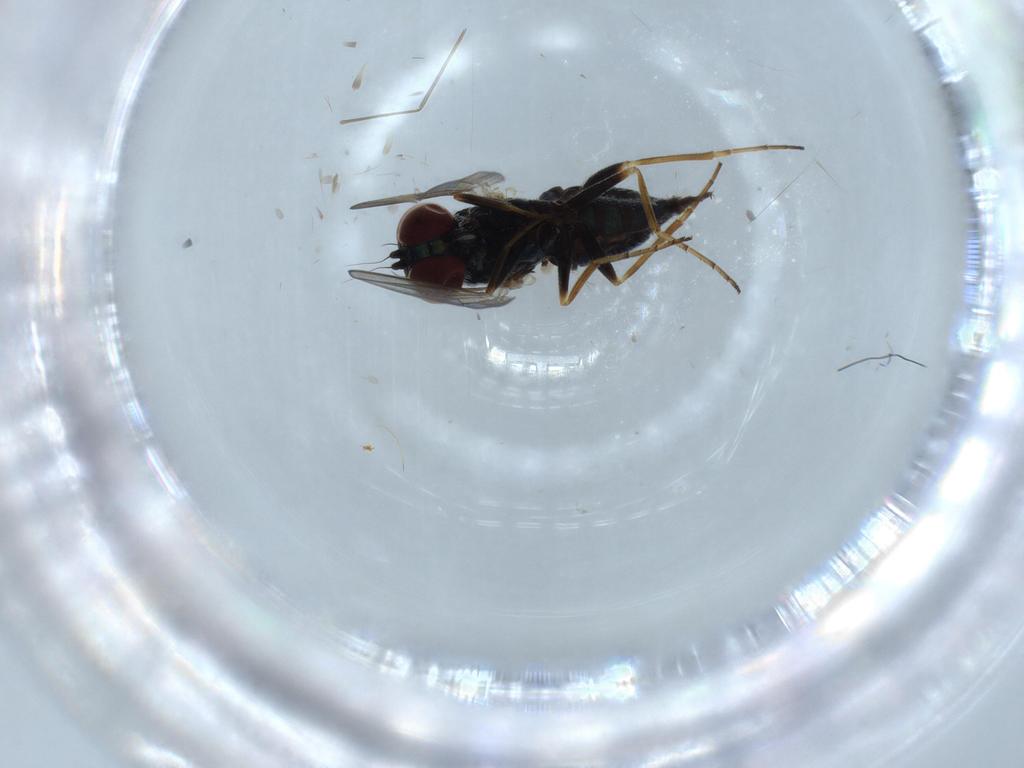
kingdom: Animalia
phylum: Arthropoda
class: Insecta
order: Diptera
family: Dolichopodidae
